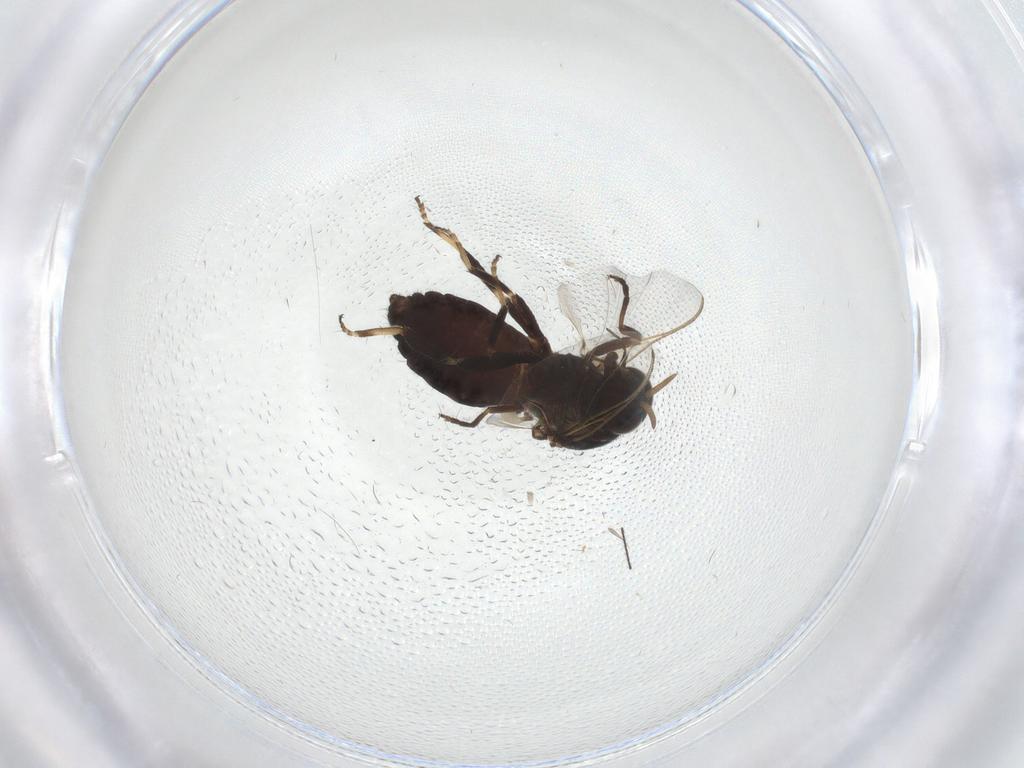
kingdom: Animalia
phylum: Arthropoda
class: Insecta
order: Diptera
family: Simuliidae
